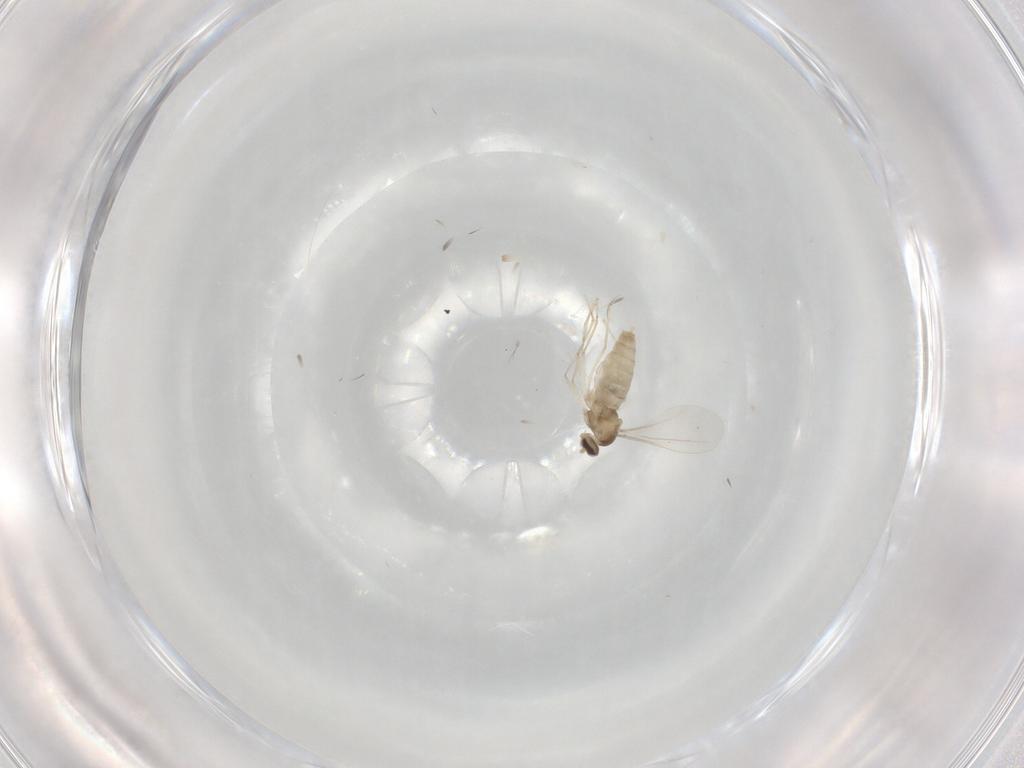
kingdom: Animalia
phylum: Arthropoda
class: Insecta
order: Diptera
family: Cecidomyiidae
